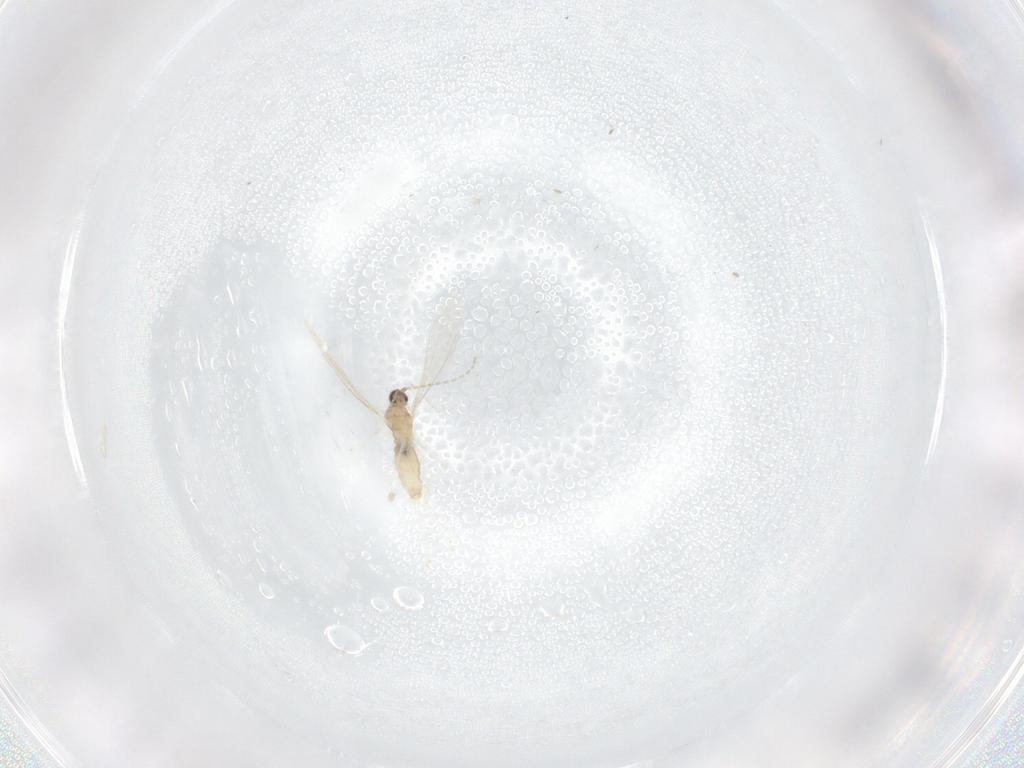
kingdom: Animalia
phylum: Arthropoda
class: Insecta
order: Diptera
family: Cecidomyiidae
